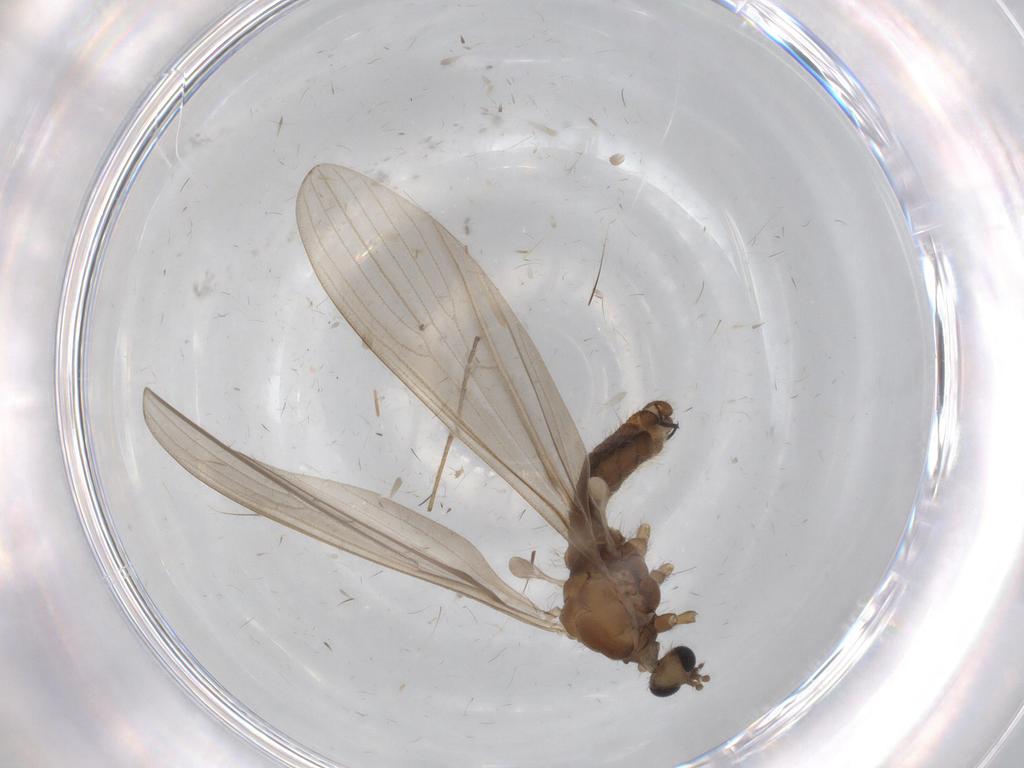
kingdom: Animalia
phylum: Arthropoda
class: Insecta
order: Diptera
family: Limoniidae
